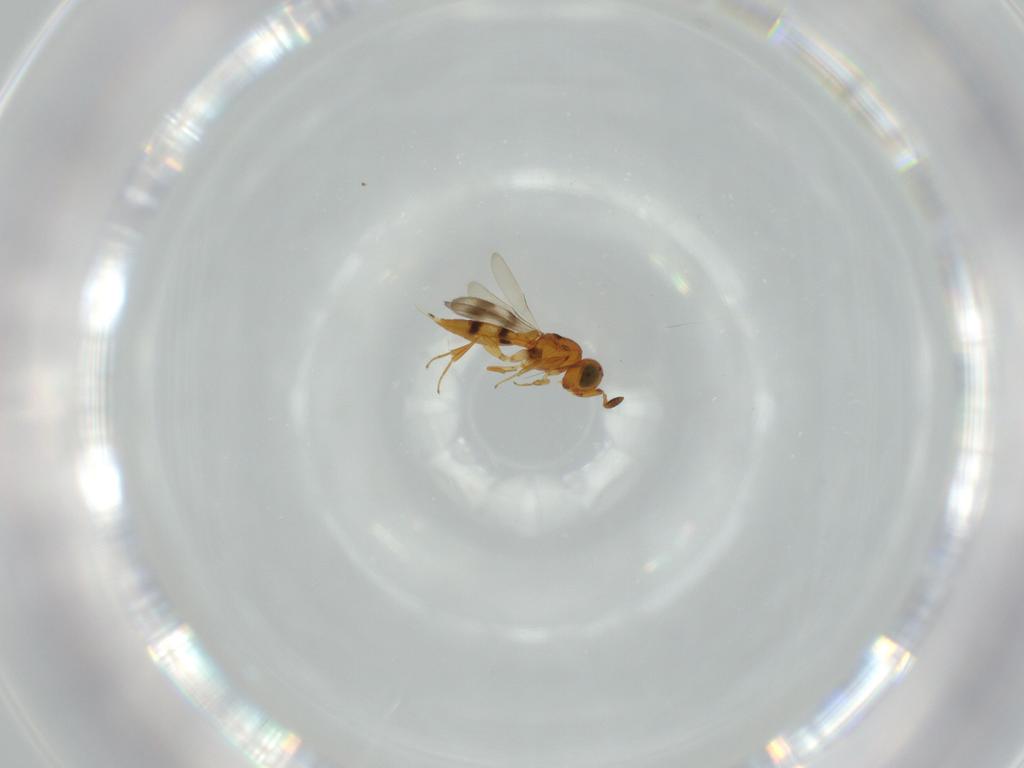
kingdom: Animalia
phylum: Arthropoda
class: Insecta
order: Hymenoptera
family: Scelionidae
